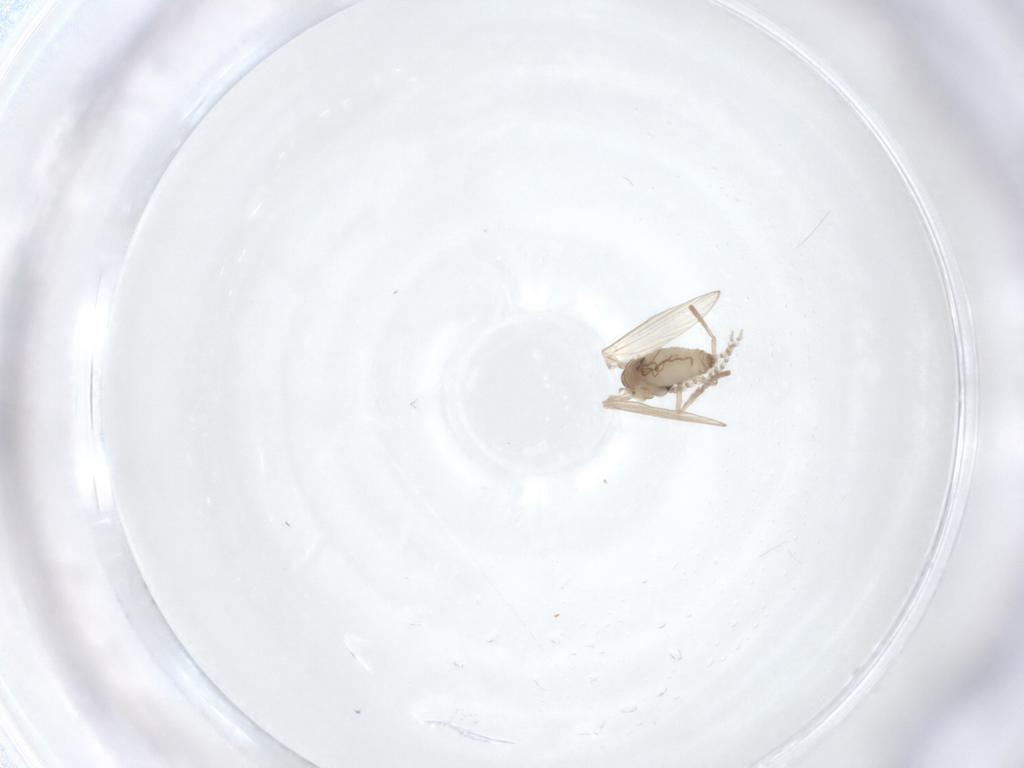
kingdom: Animalia
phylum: Arthropoda
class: Insecta
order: Diptera
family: Psychodidae
